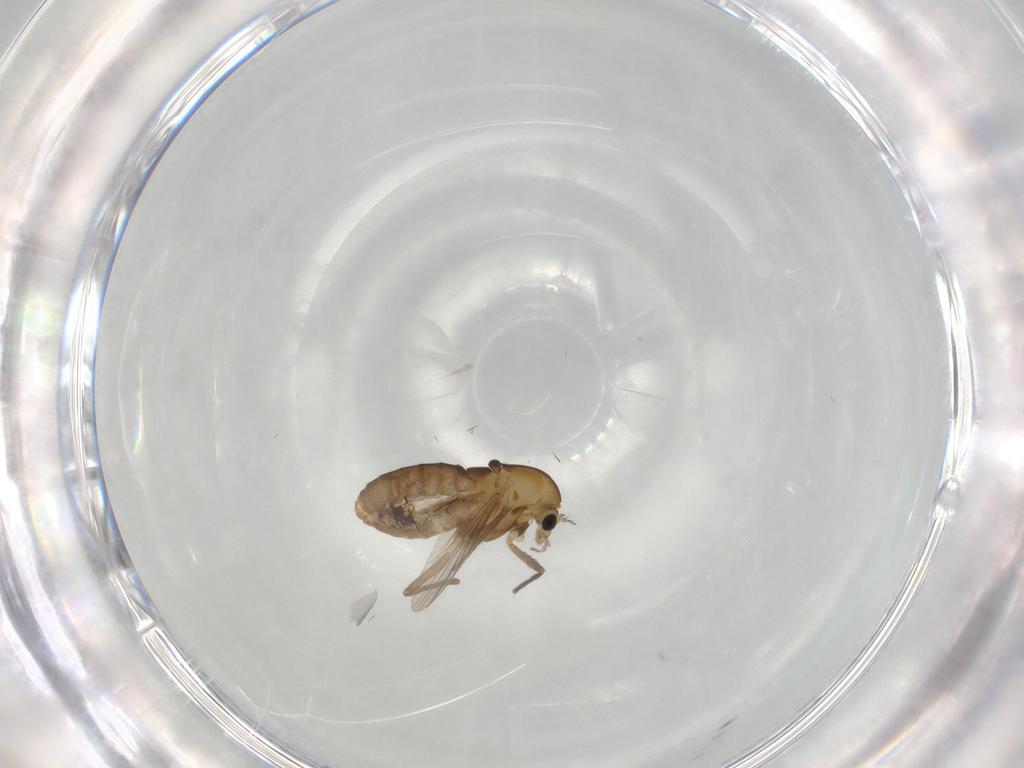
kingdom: Animalia
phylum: Arthropoda
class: Insecta
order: Diptera
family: Chironomidae
